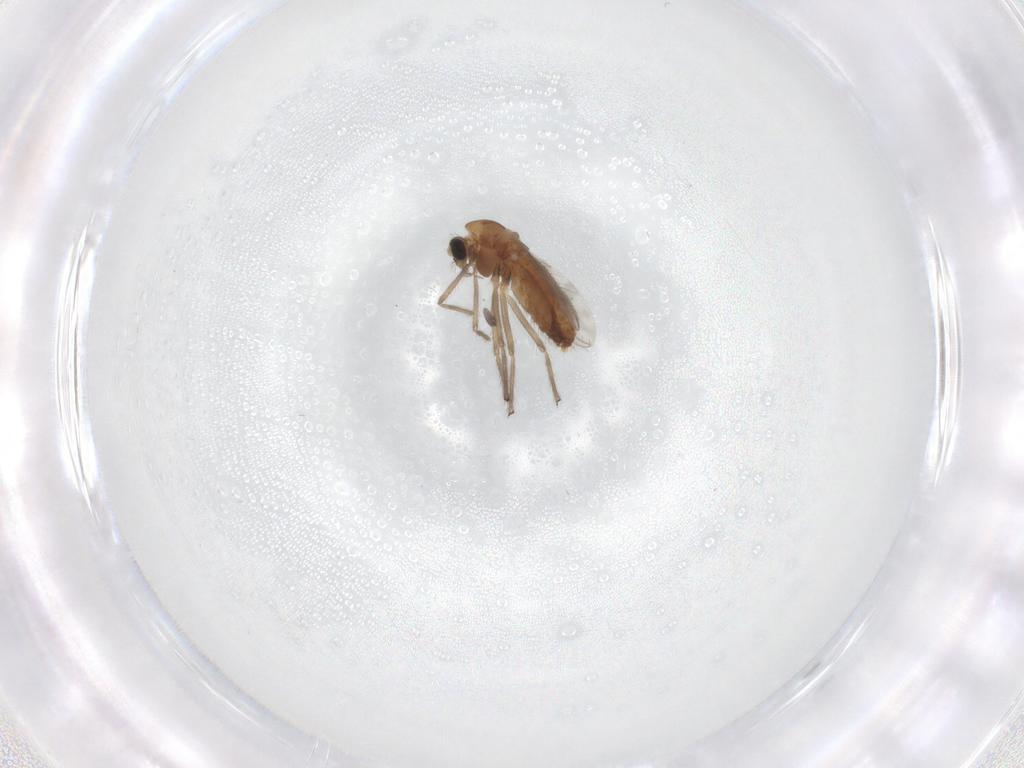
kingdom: Animalia
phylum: Arthropoda
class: Insecta
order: Diptera
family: Chironomidae
